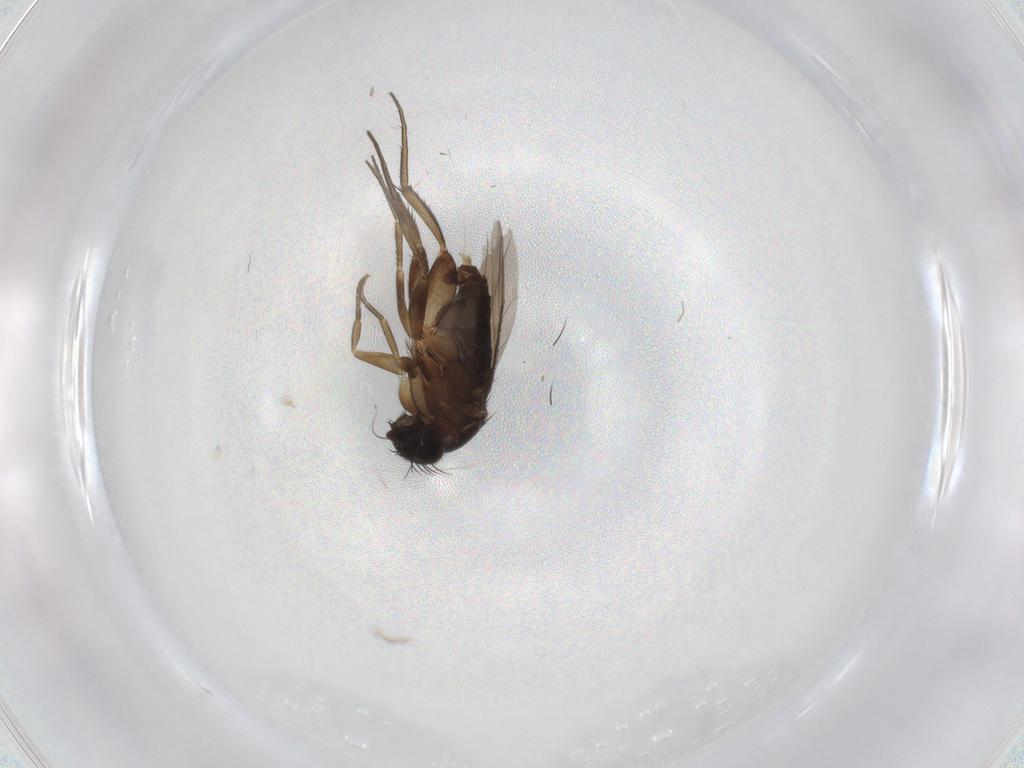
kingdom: Animalia
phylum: Arthropoda
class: Insecta
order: Diptera
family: Phoridae
